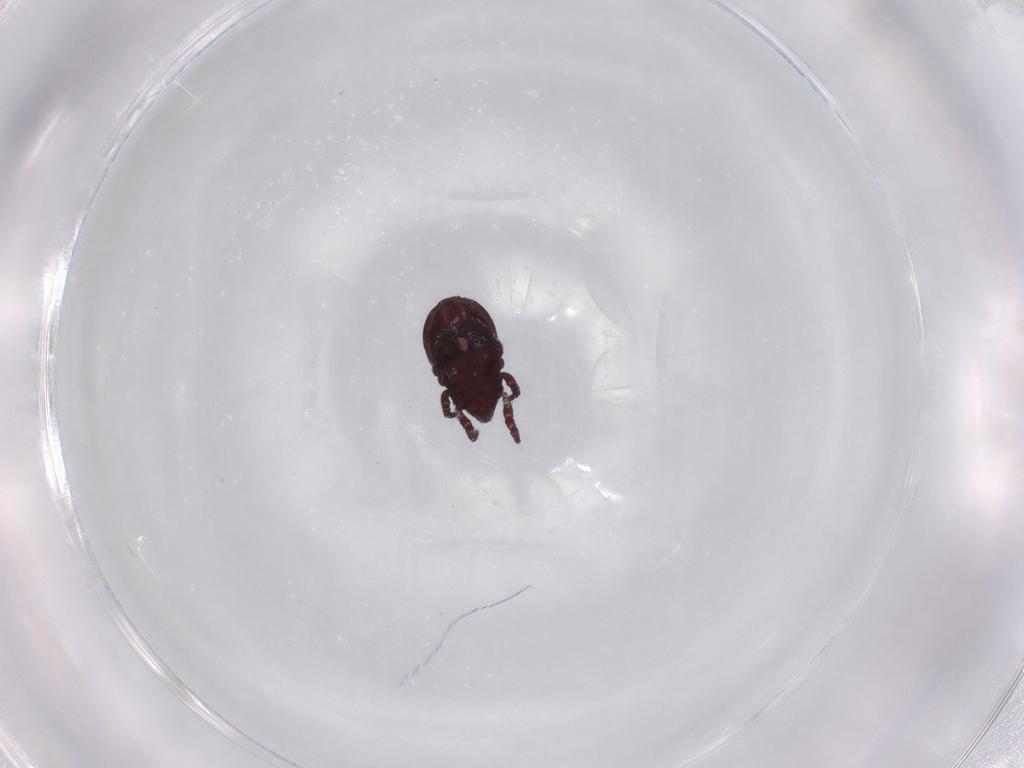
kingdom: Animalia
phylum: Arthropoda
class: Arachnida
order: Sarcoptiformes
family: Hermanniidae
